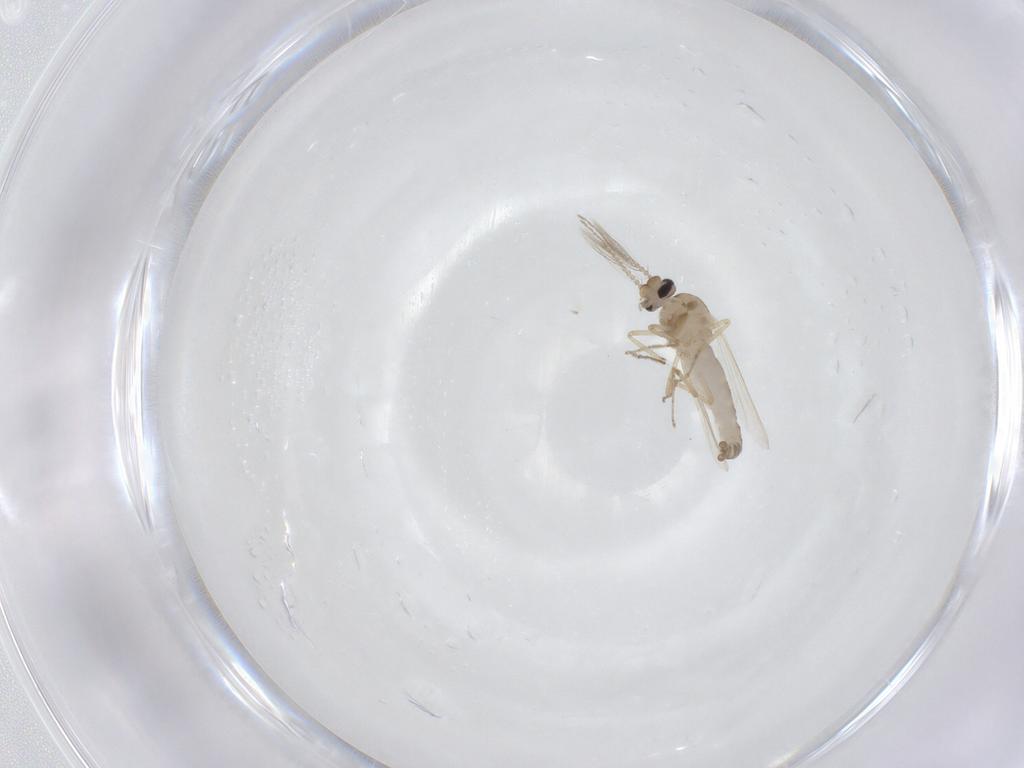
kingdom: Animalia
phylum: Arthropoda
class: Insecta
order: Diptera
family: Ceratopogonidae
